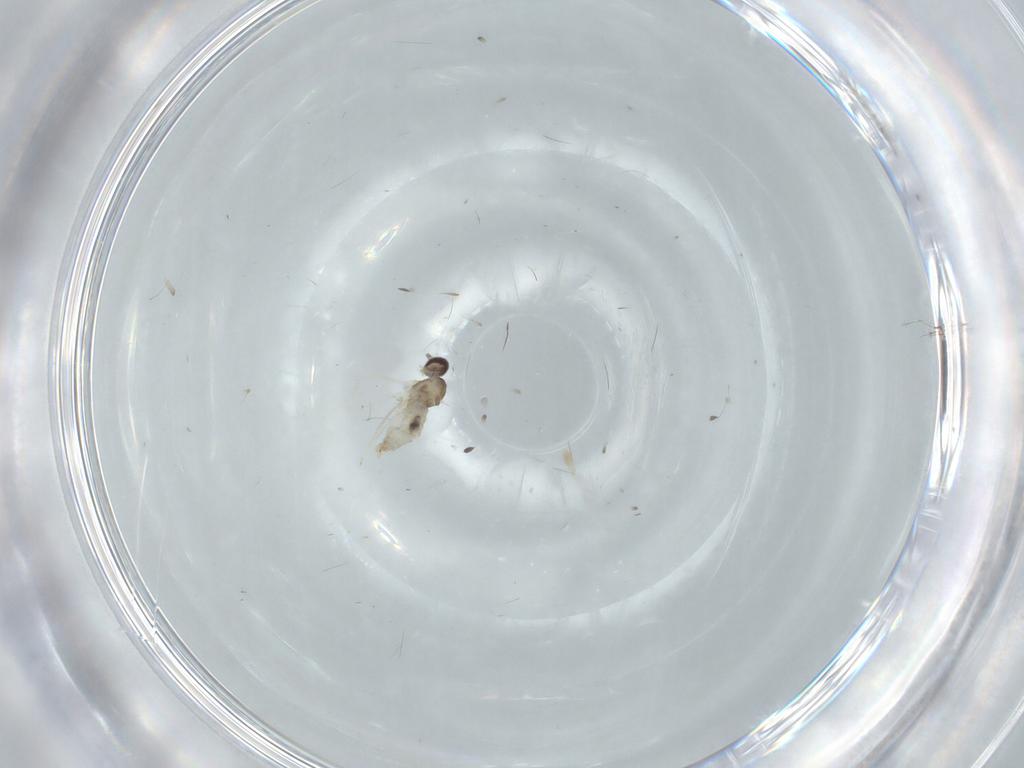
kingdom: Animalia
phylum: Arthropoda
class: Insecta
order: Diptera
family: Cecidomyiidae
